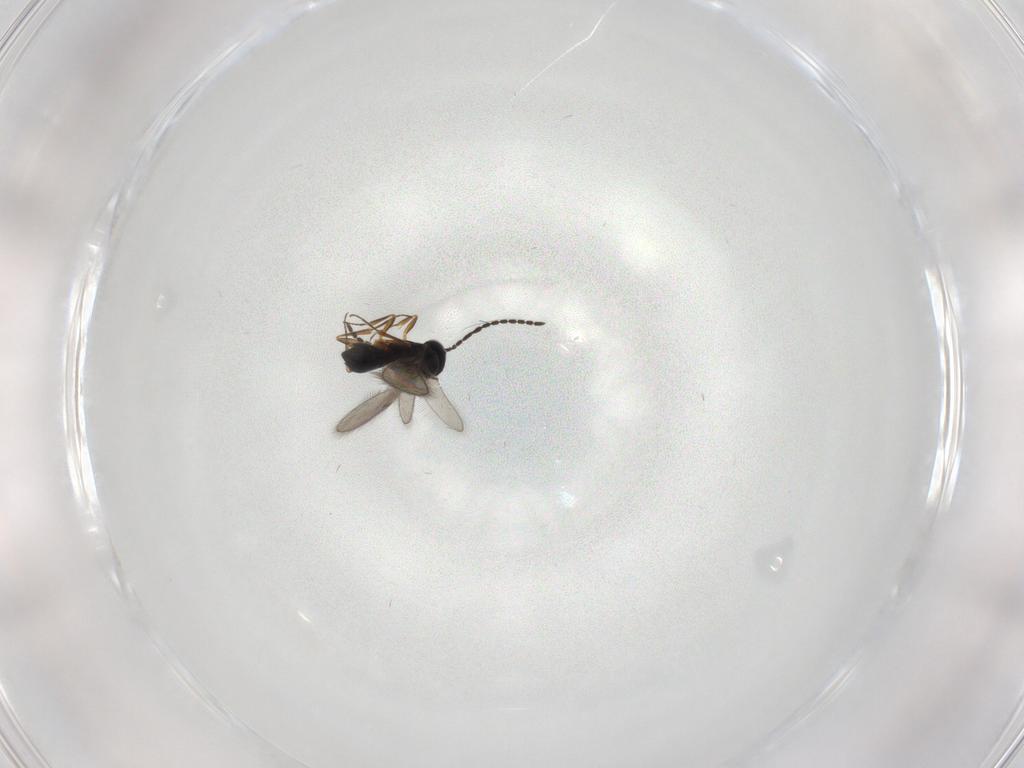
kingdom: Animalia
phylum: Arthropoda
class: Insecta
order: Hymenoptera
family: Scelionidae
